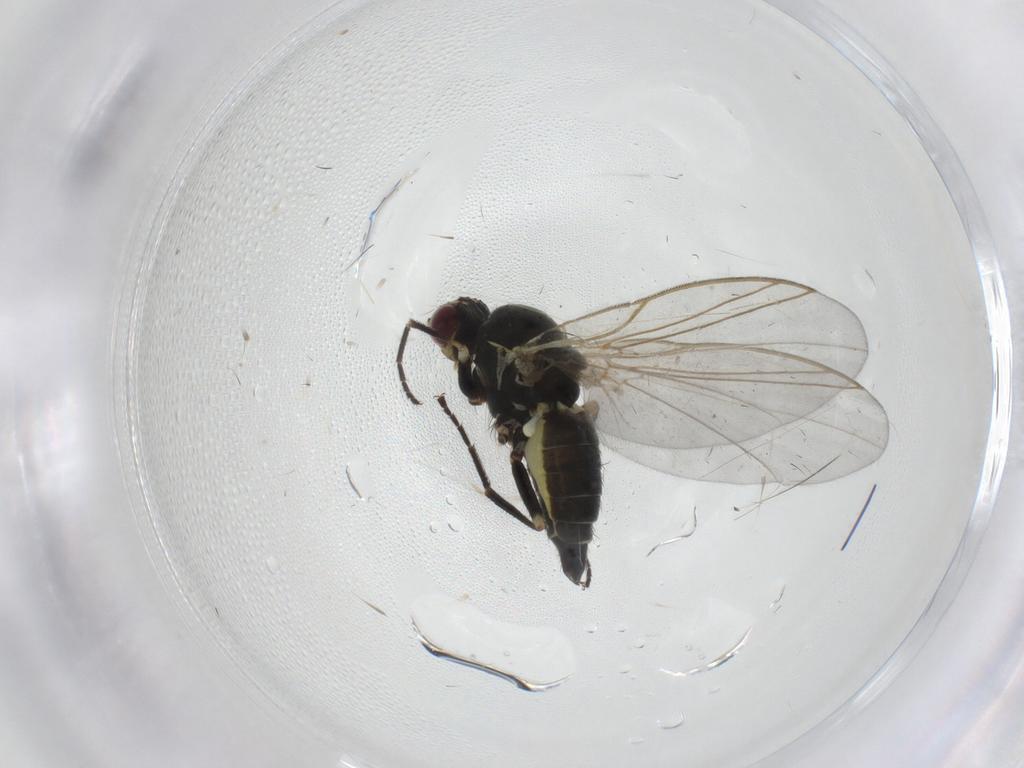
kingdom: Animalia
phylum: Arthropoda
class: Insecta
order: Diptera
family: Sciaridae
